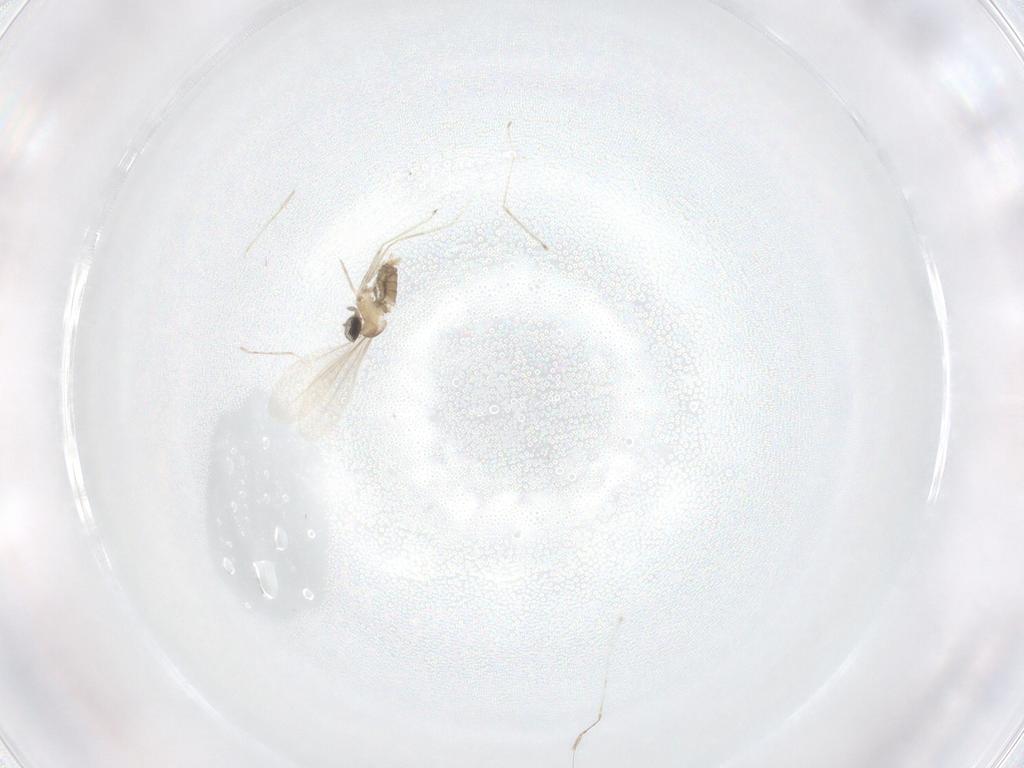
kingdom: Animalia
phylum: Arthropoda
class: Insecta
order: Diptera
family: Cecidomyiidae
